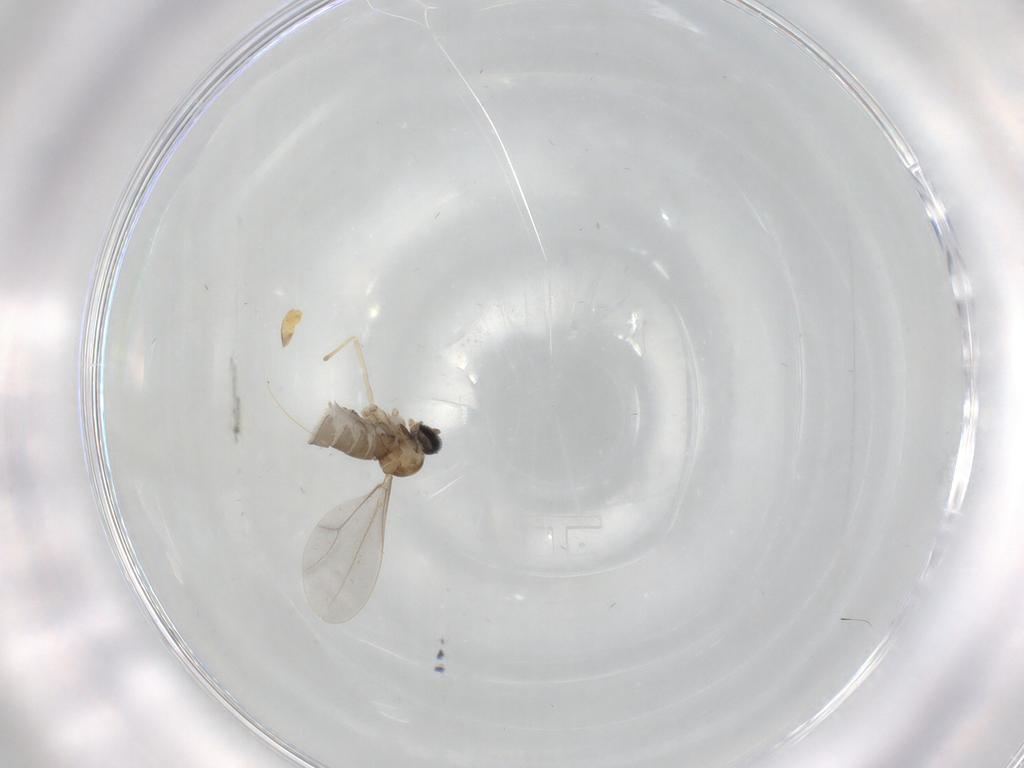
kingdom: Animalia
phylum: Arthropoda
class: Insecta
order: Diptera
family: Cecidomyiidae
